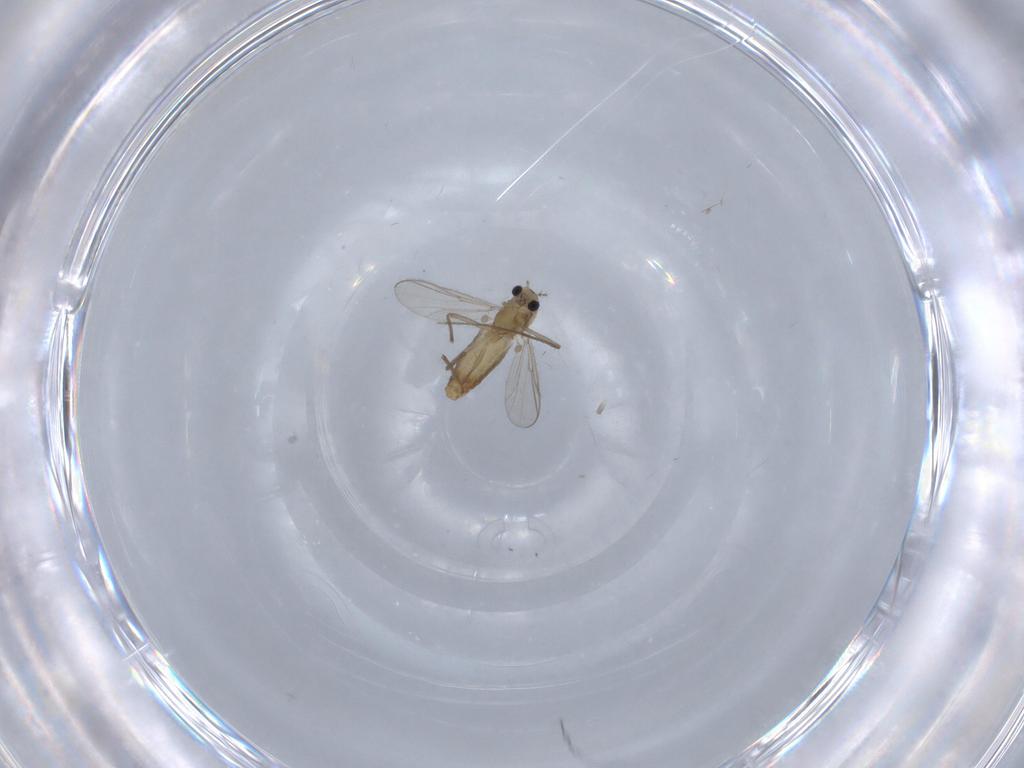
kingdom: Animalia
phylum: Arthropoda
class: Insecta
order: Diptera
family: Chironomidae
